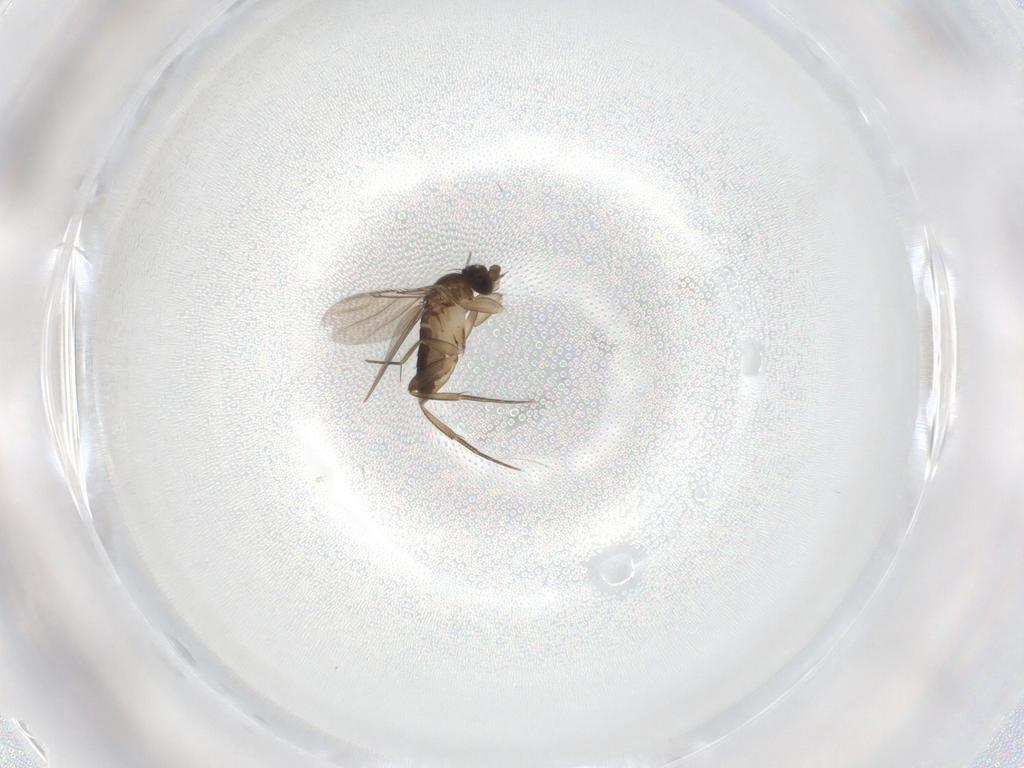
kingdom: Animalia
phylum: Arthropoda
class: Insecta
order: Diptera
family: Phoridae
